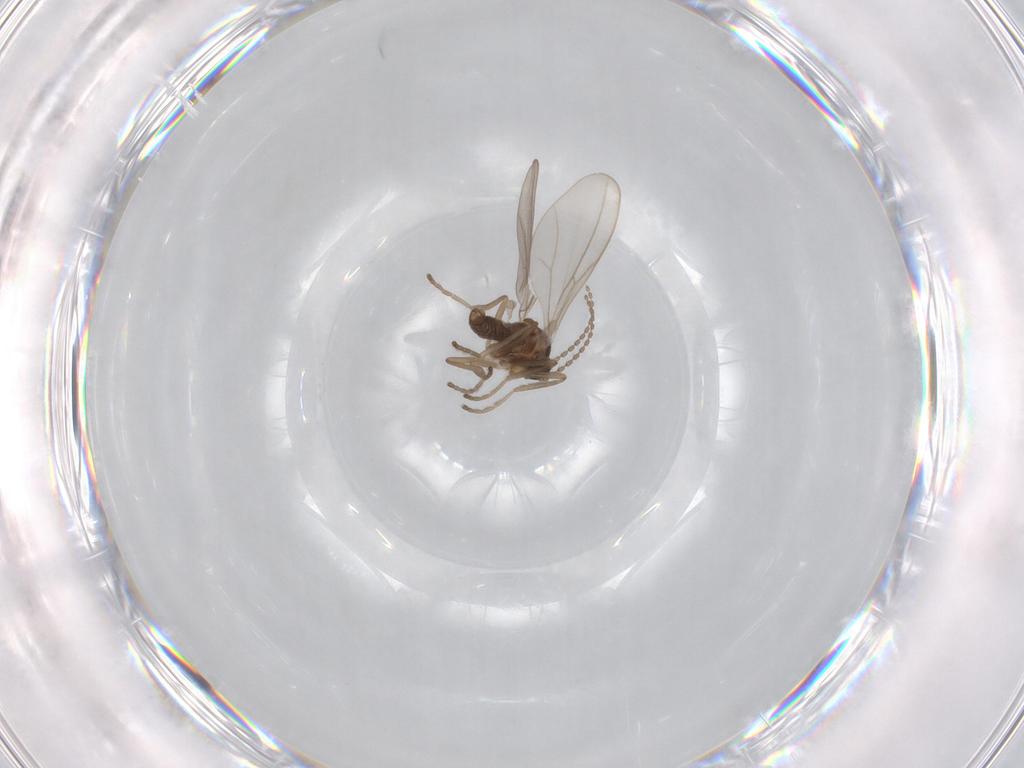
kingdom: Animalia
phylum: Arthropoda
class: Insecta
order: Diptera
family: Cecidomyiidae
